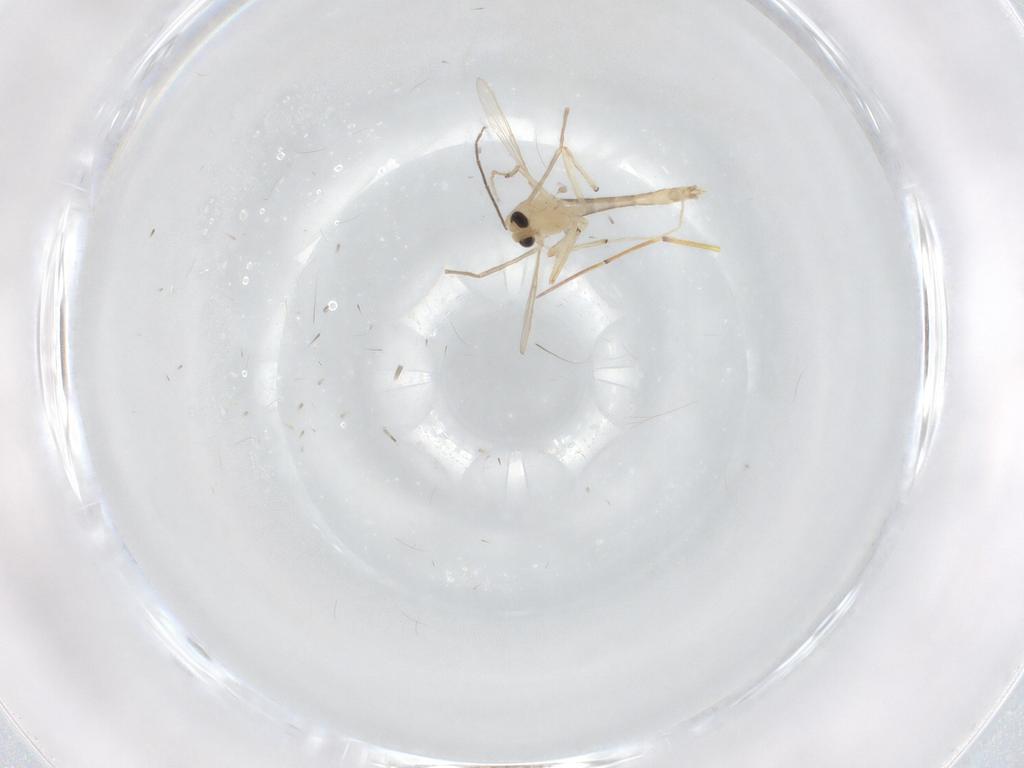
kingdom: Animalia
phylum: Arthropoda
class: Insecta
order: Diptera
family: Chironomidae
